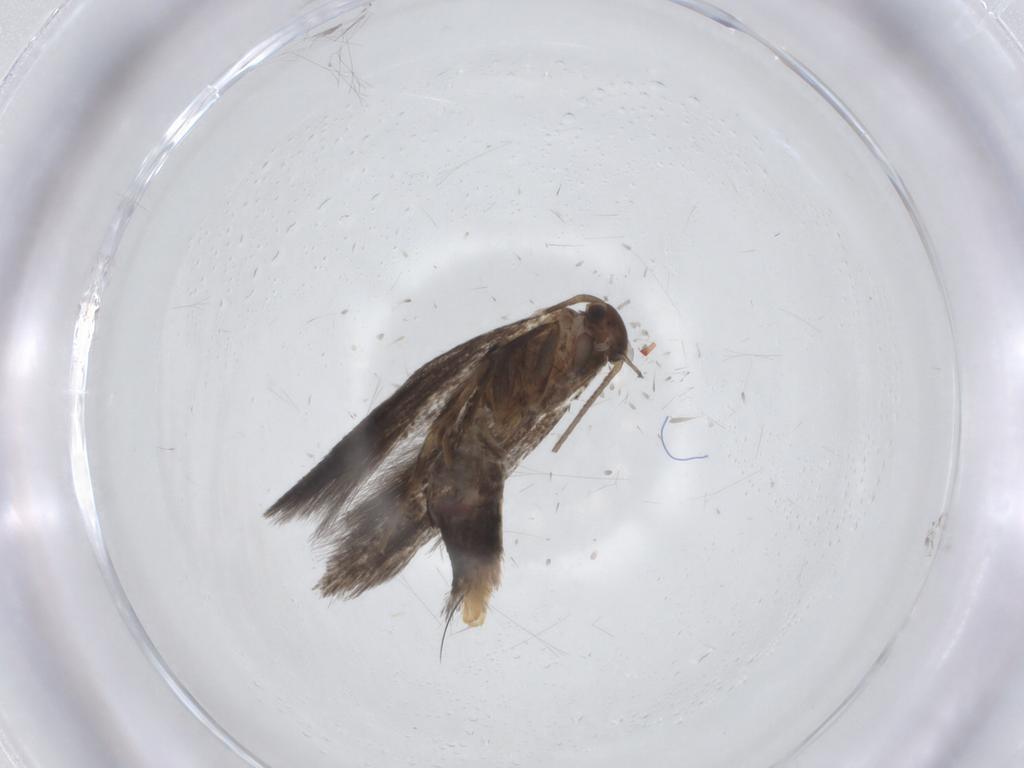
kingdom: Animalia
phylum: Arthropoda
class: Insecta
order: Lepidoptera
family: Elachistidae
